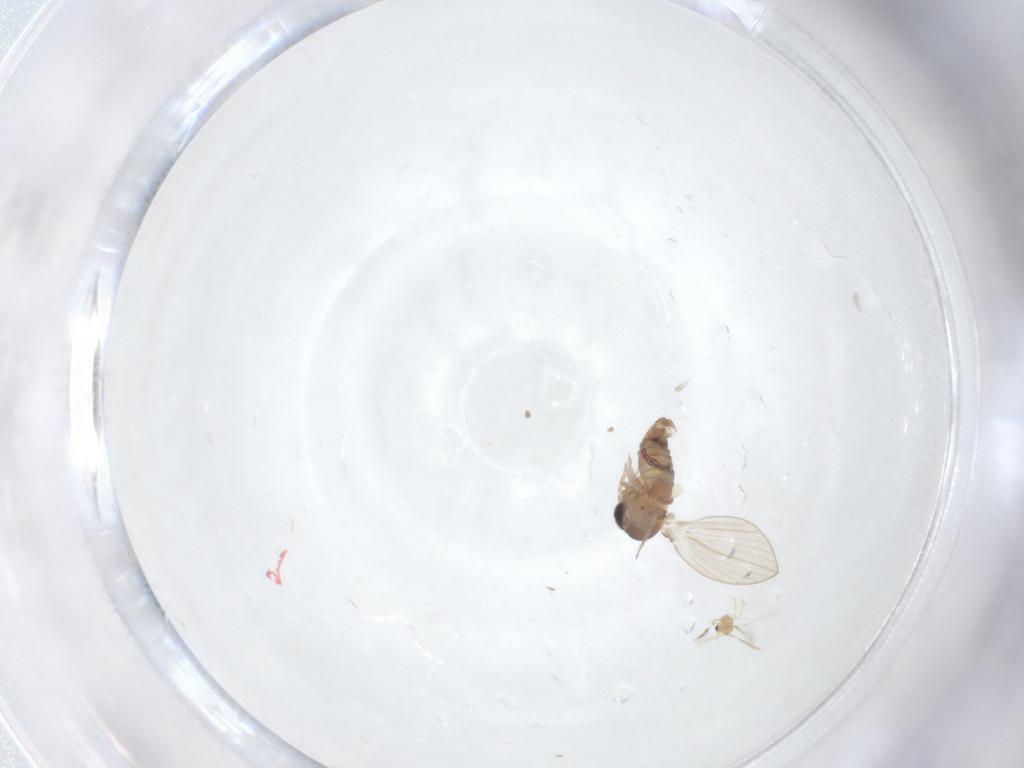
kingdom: Animalia
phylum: Arthropoda
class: Insecta
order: Diptera
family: Psychodidae
